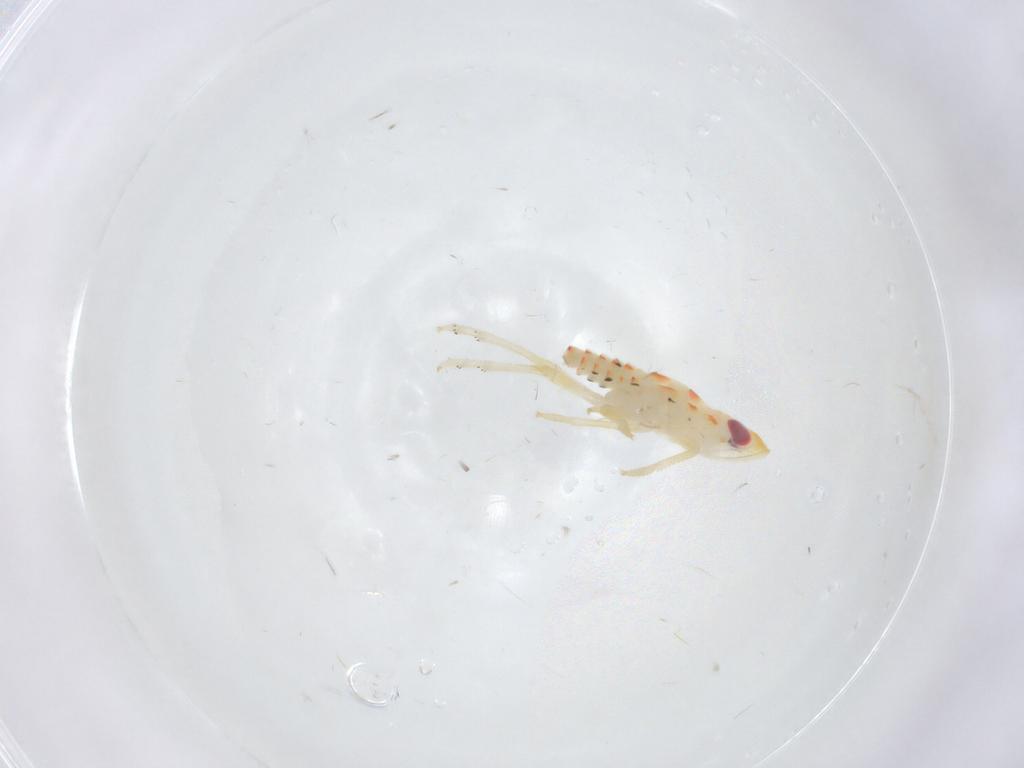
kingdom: Animalia
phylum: Arthropoda
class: Insecta
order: Hemiptera
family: Tropiduchidae
